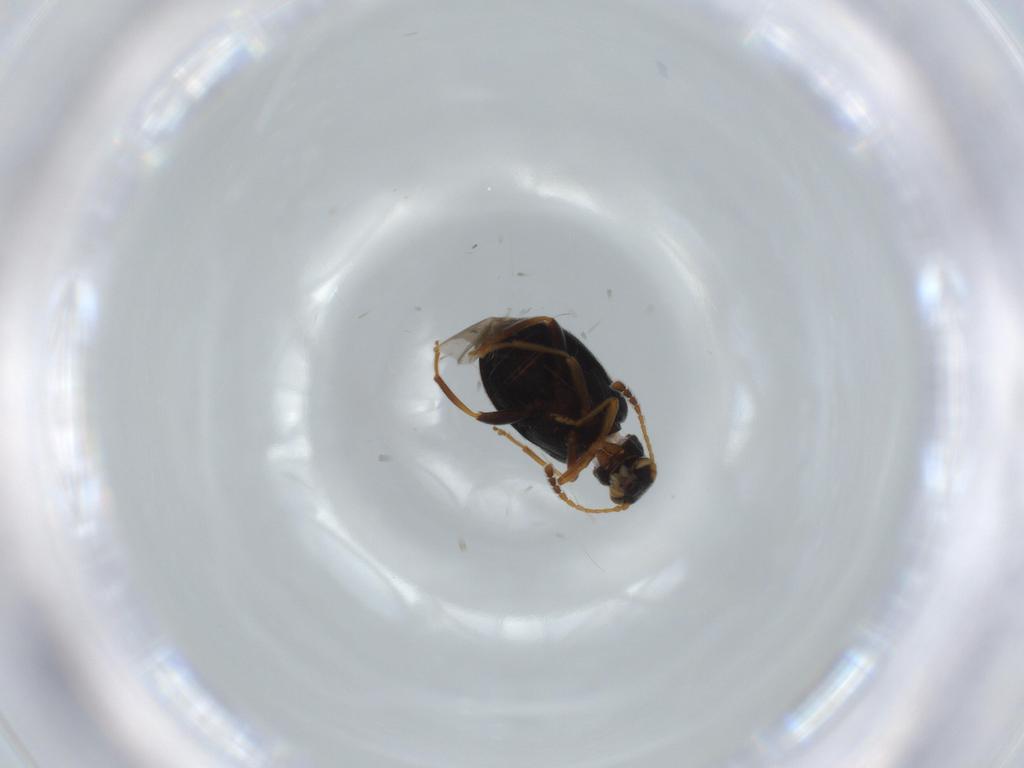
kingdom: Animalia
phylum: Arthropoda
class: Insecta
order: Coleoptera
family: Aderidae
